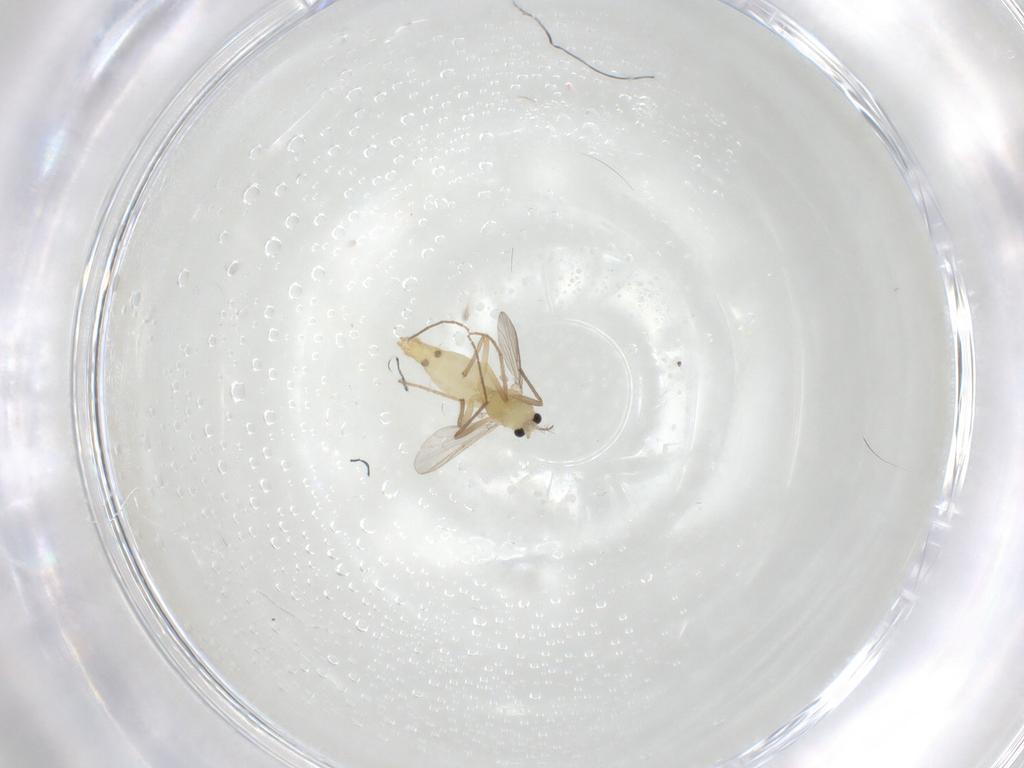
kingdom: Animalia
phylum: Arthropoda
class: Insecta
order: Diptera
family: Chironomidae
